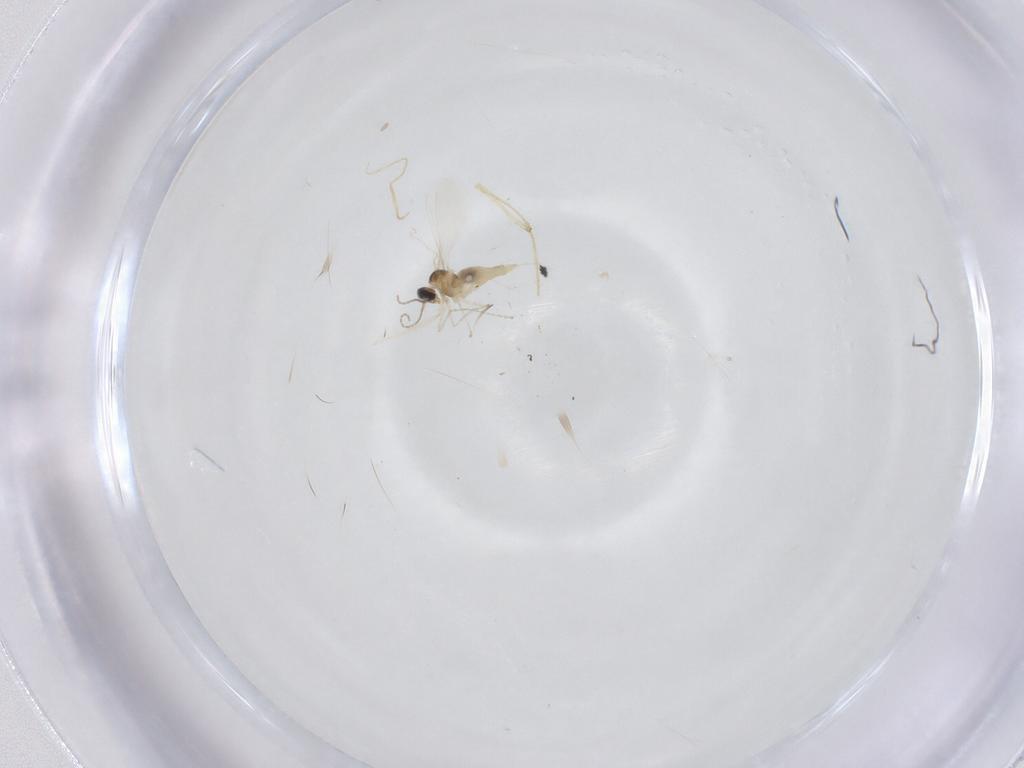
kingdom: Animalia
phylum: Arthropoda
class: Insecta
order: Diptera
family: Cecidomyiidae
